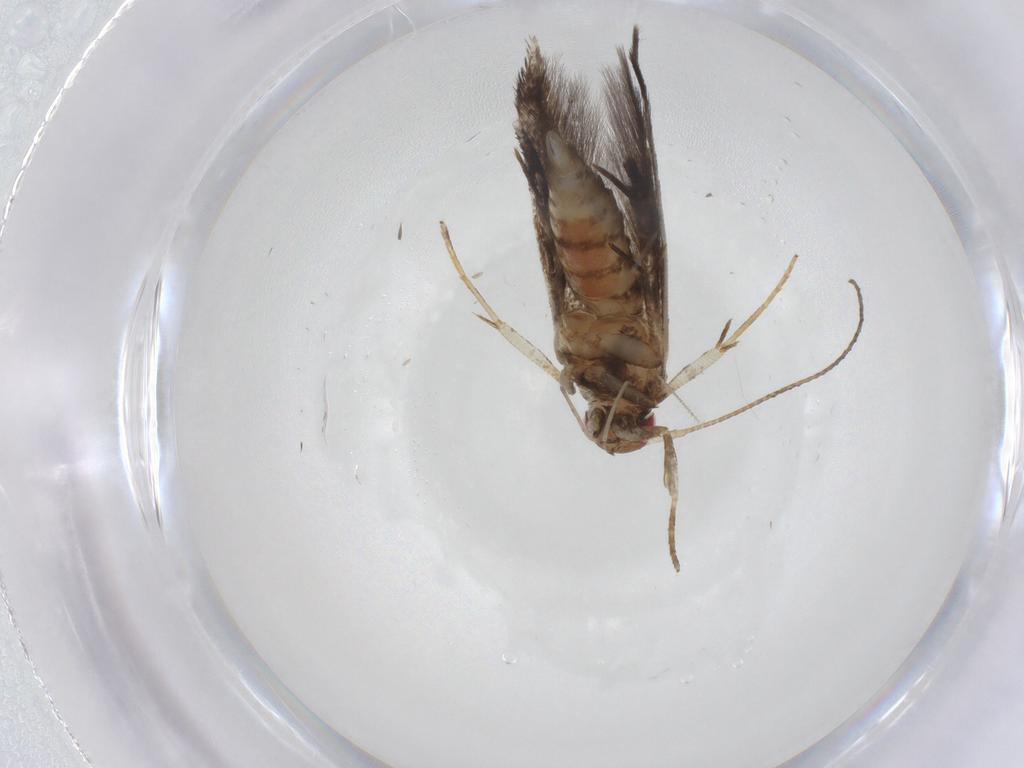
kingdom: Animalia
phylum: Arthropoda
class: Insecta
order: Lepidoptera
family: Gelechiidae
